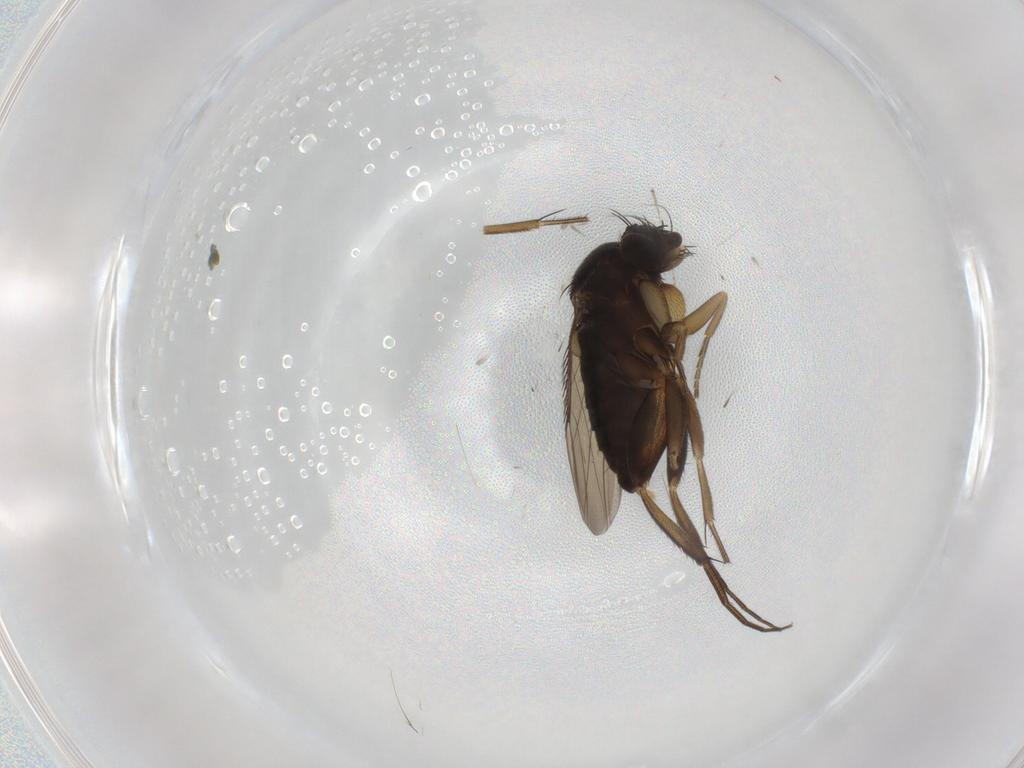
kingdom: Animalia
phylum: Arthropoda
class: Insecta
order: Diptera
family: Phoridae
